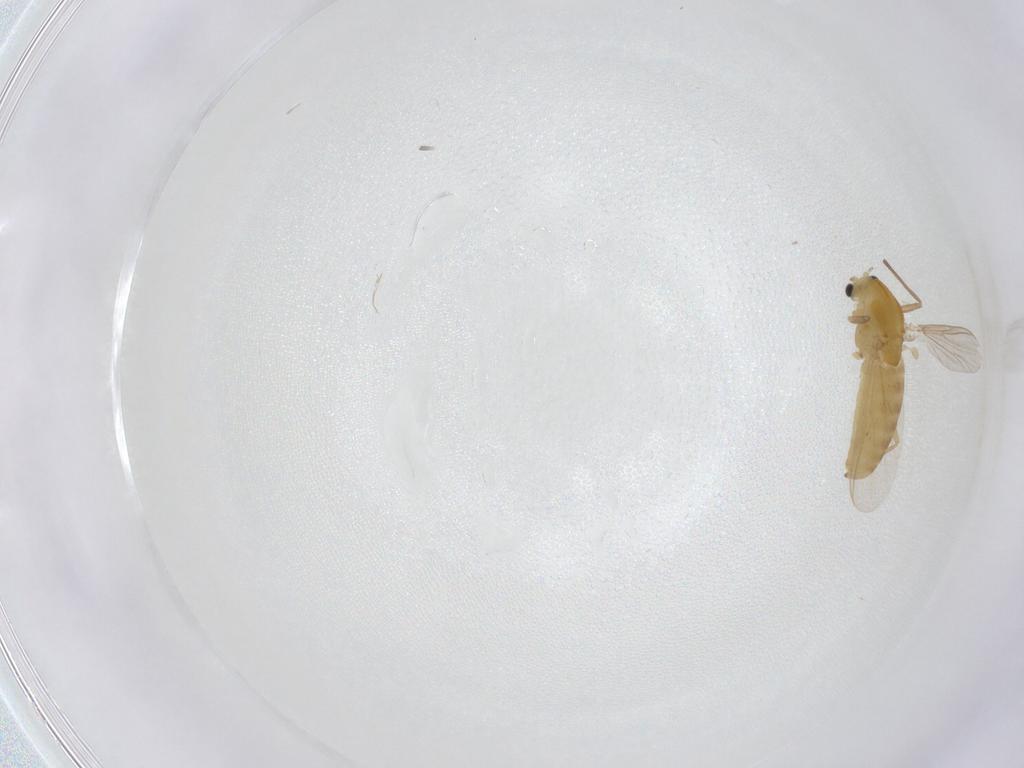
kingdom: Animalia
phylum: Arthropoda
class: Insecta
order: Diptera
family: Chironomidae
